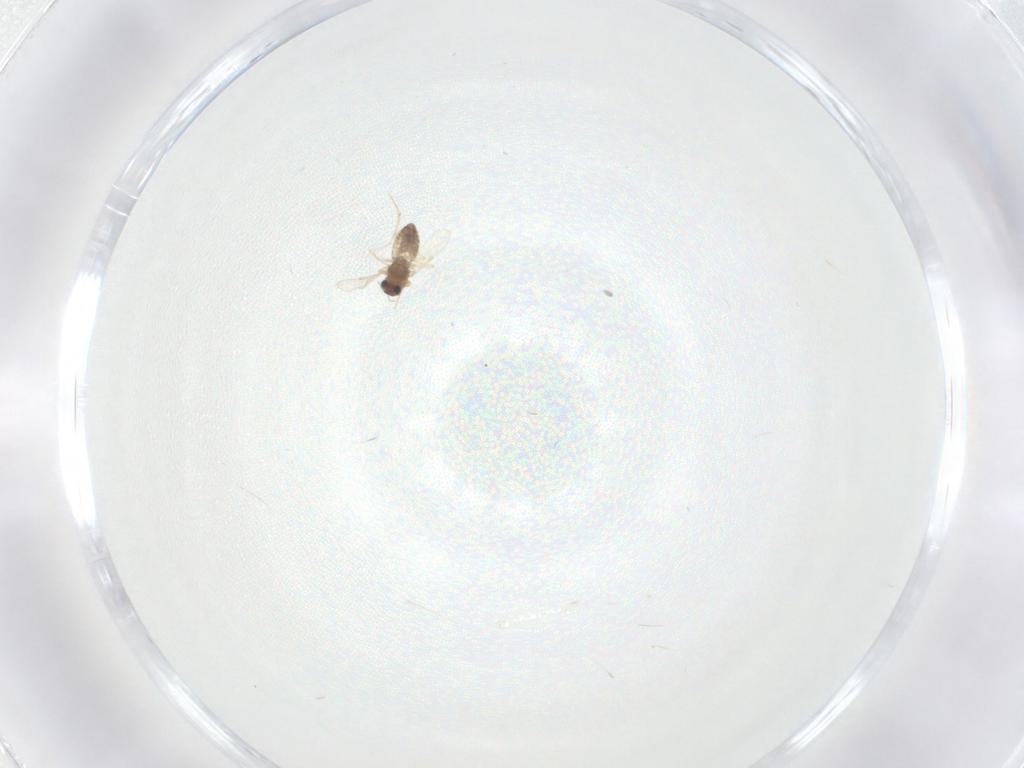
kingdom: Animalia
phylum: Arthropoda
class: Insecta
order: Diptera
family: Chironomidae
